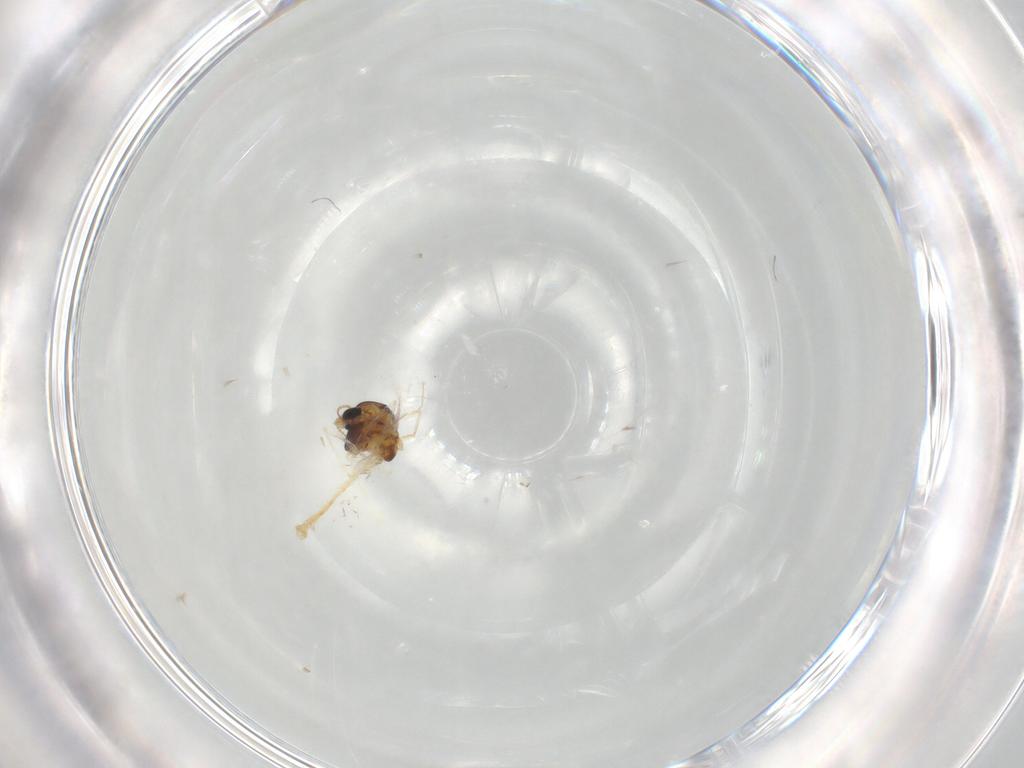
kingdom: Animalia
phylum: Arthropoda
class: Insecta
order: Diptera
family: Chironomidae
